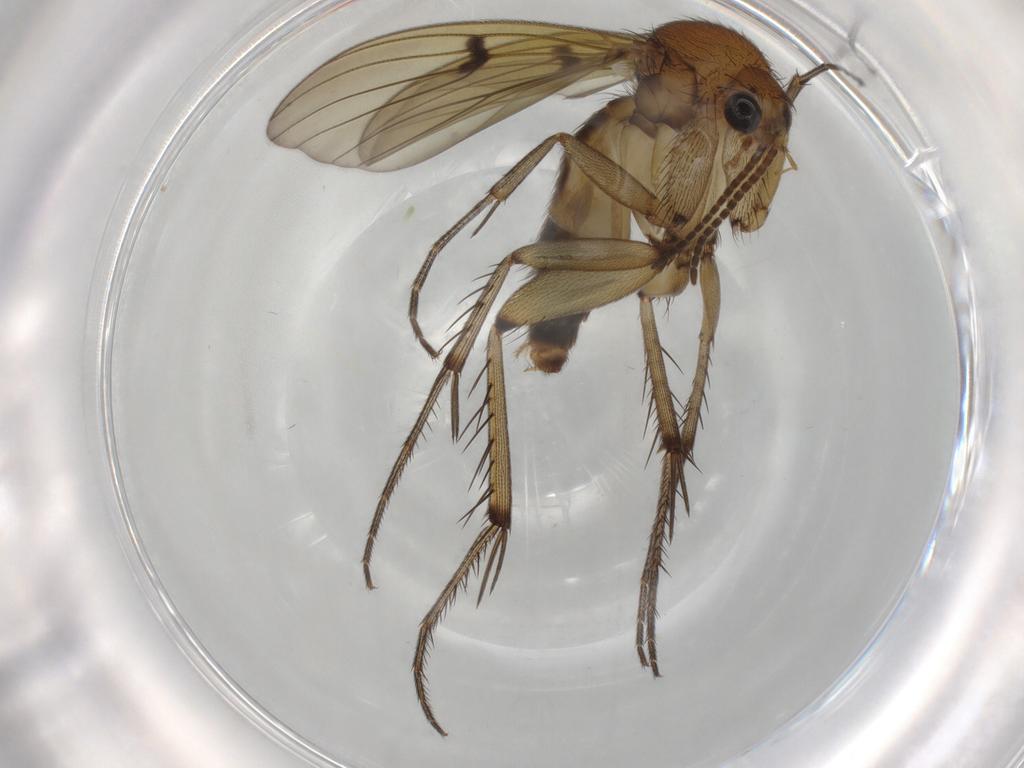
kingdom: Animalia
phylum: Arthropoda
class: Insecta
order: Diptera
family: Mycetophilidae
